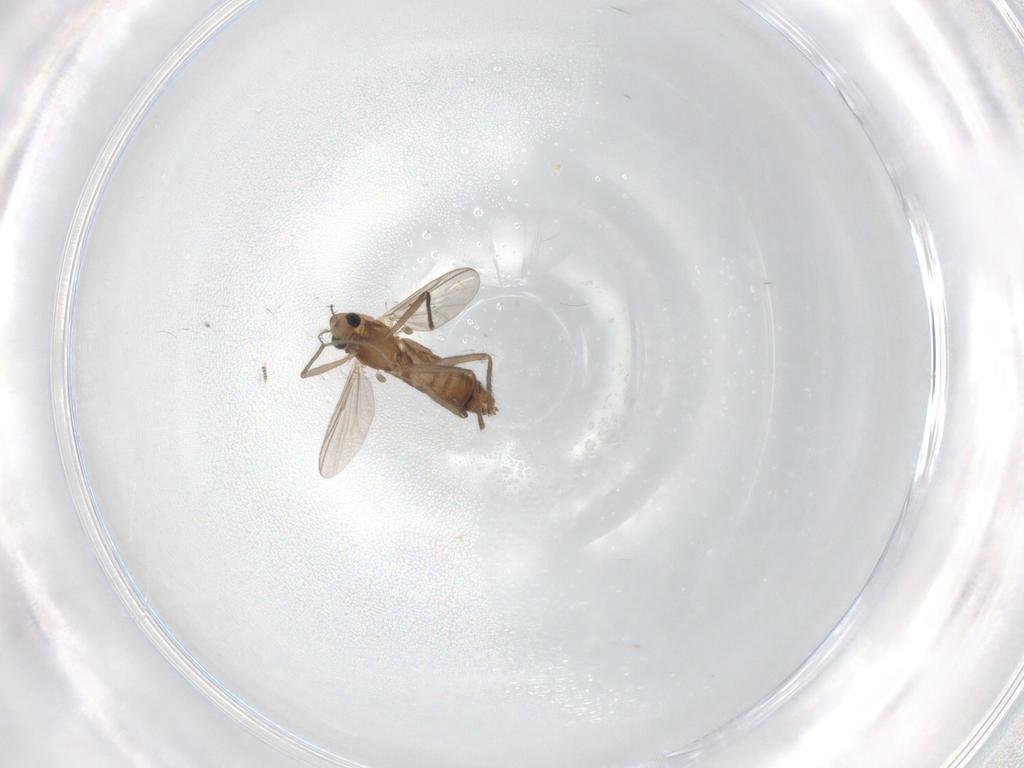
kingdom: Animalia
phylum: Arthropoda
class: Insecta
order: Diptera
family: Chironomidae
